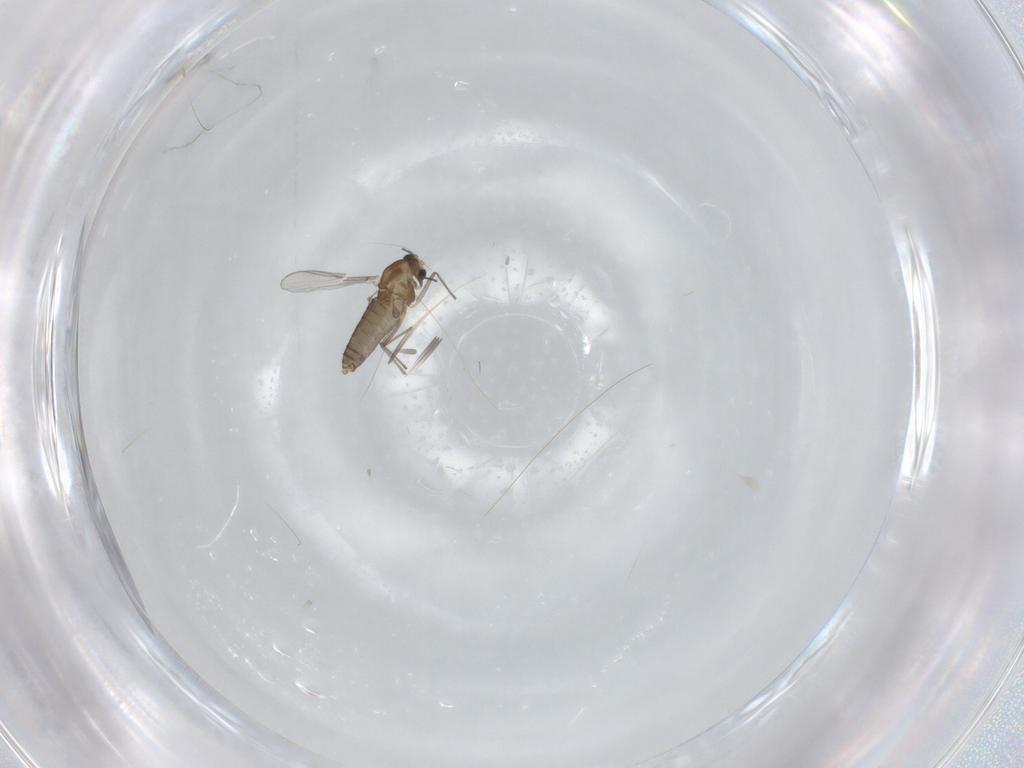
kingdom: Animalia
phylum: Arthropoda
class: Insecta
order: Diptera
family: Chironomidae
